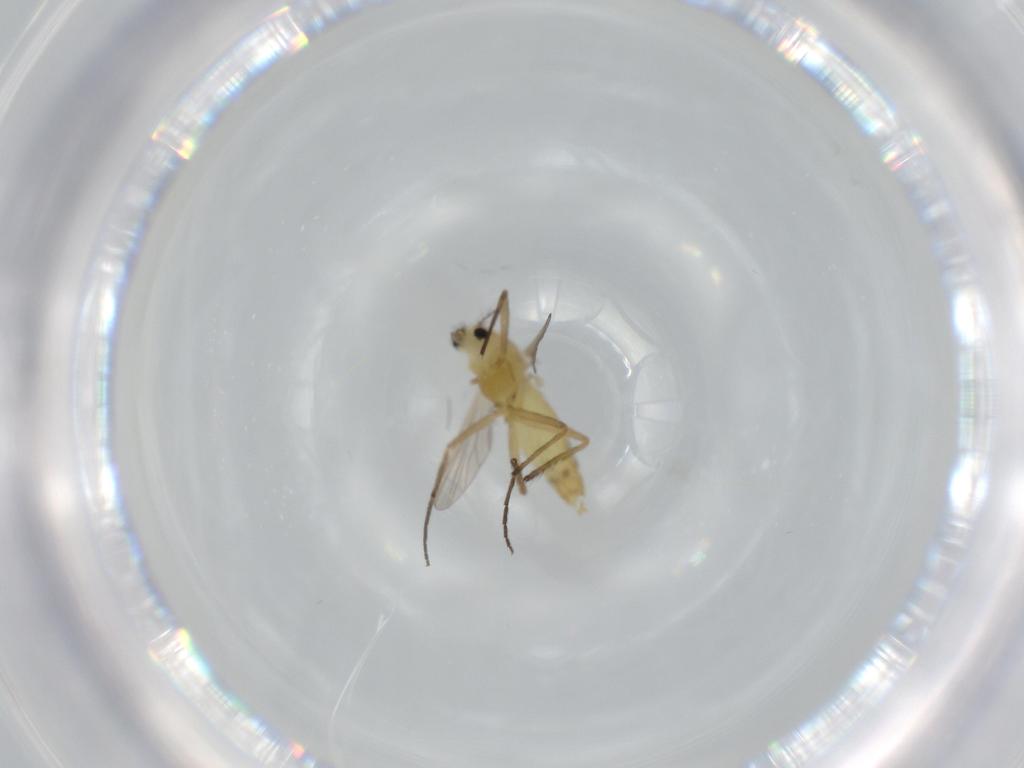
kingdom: Animalia
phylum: Arthropoda
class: Insecta
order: Diptera
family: Chironomidae
